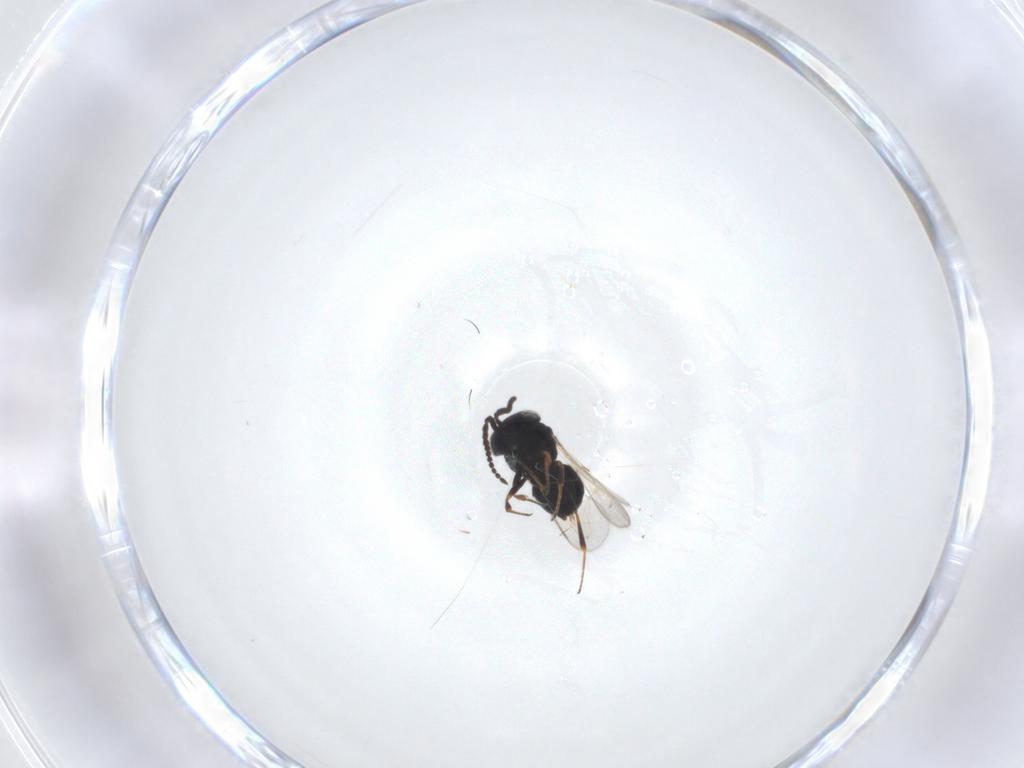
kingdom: Animalia
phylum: Arthropoda
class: Insecta
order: Hymenoptera
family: Scelionidae
